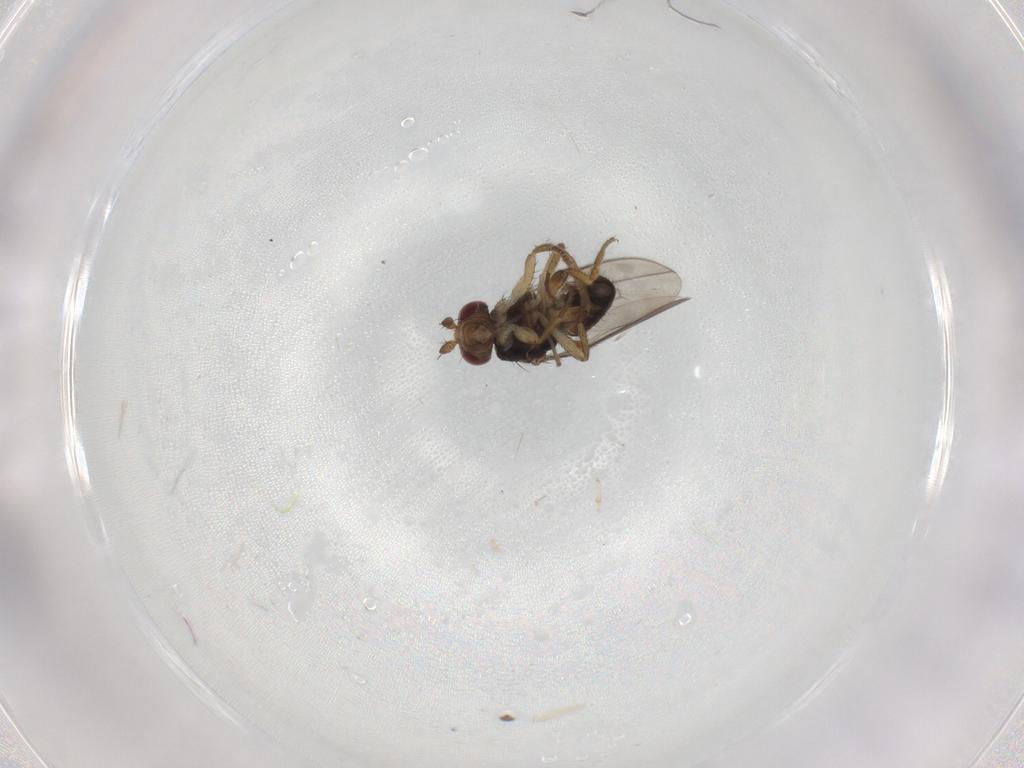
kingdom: Animalia
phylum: Arthropoda
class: Insecta
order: Diptera
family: Sphaeroceridae
